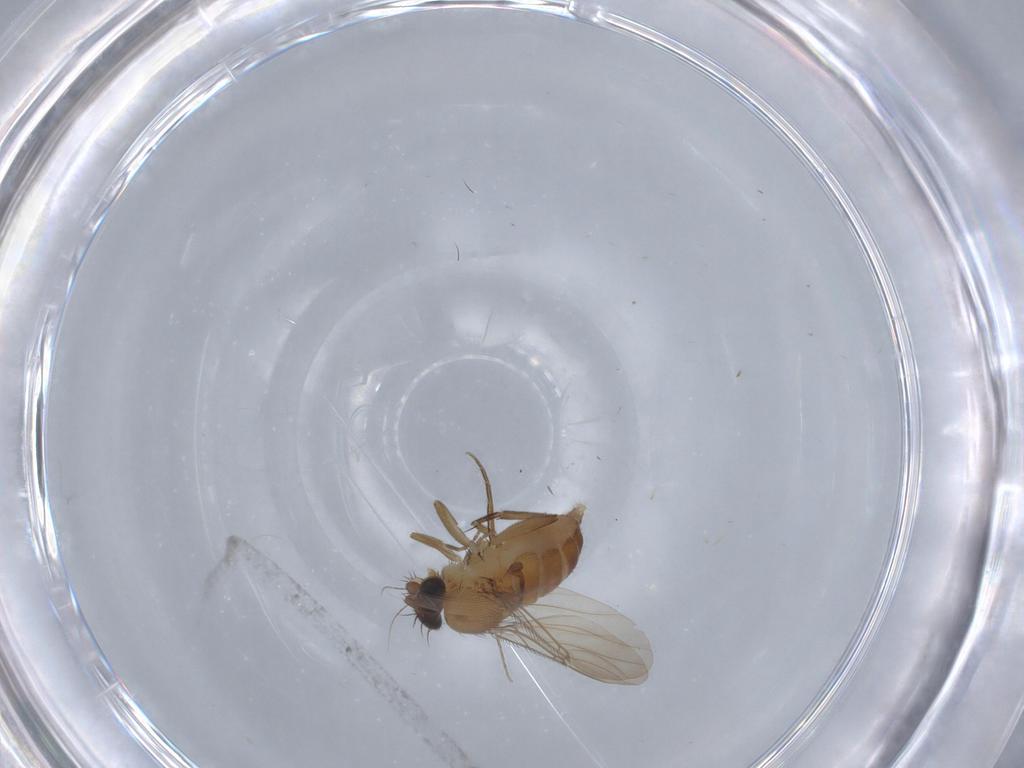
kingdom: Animalia
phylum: Arthropoda
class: Insecta
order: Diptera
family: Phoridae
